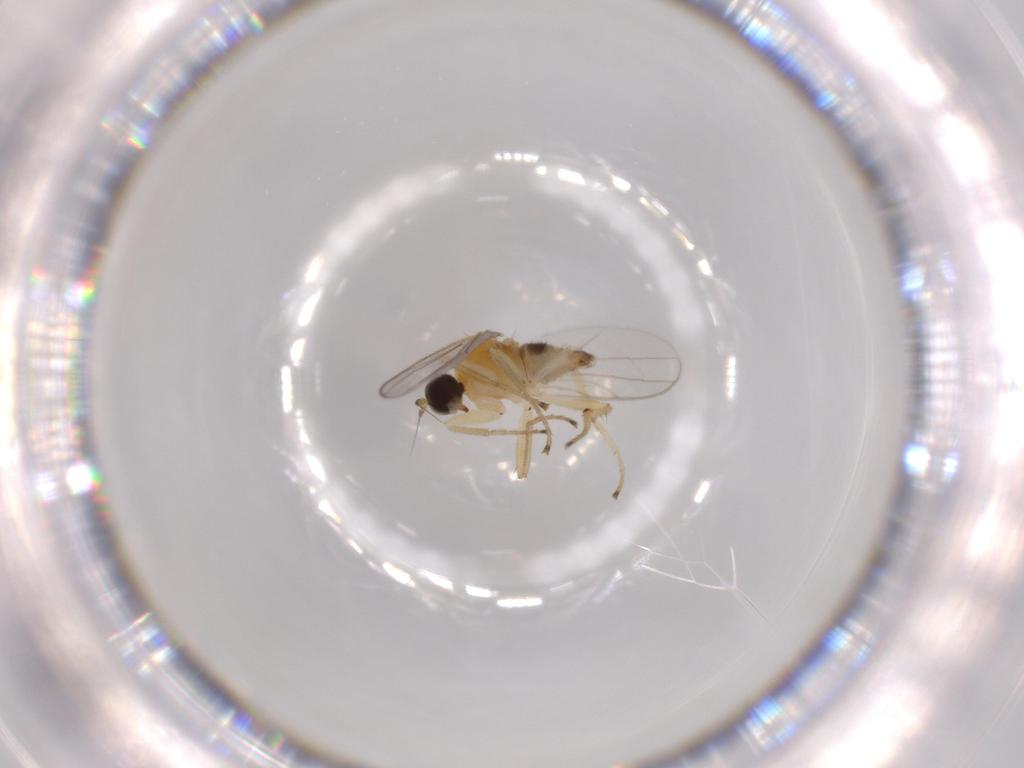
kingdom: Animalia
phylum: Arthropoda
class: Insecta
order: Diptera
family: Hybotidae
